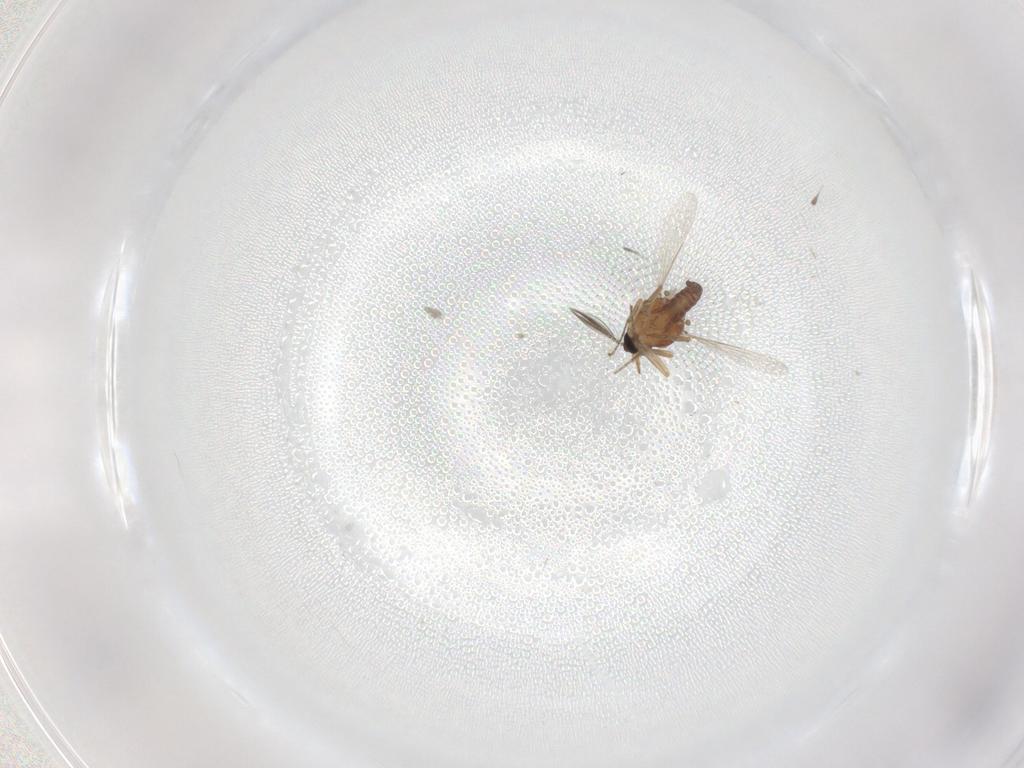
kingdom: Animalia
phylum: Arthropoda
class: Insecta
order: Diptera
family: Ceratopogonidae
